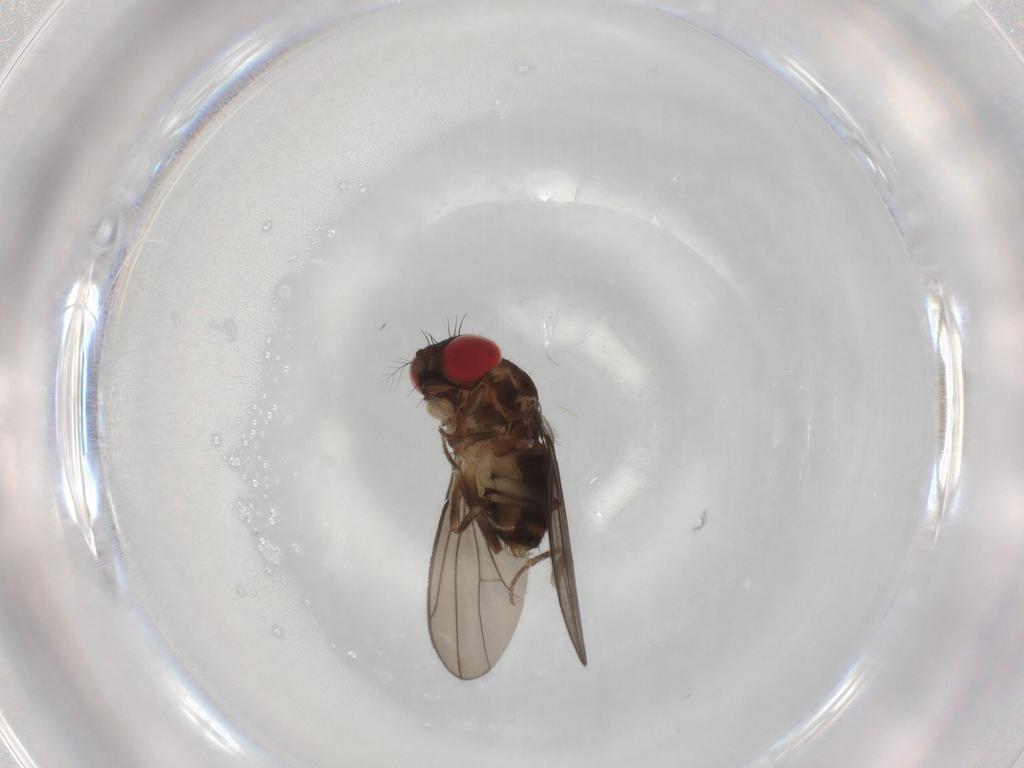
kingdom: Animalia
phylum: Arthropoda
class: Insecta
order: Diptera
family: Drosophilidae
